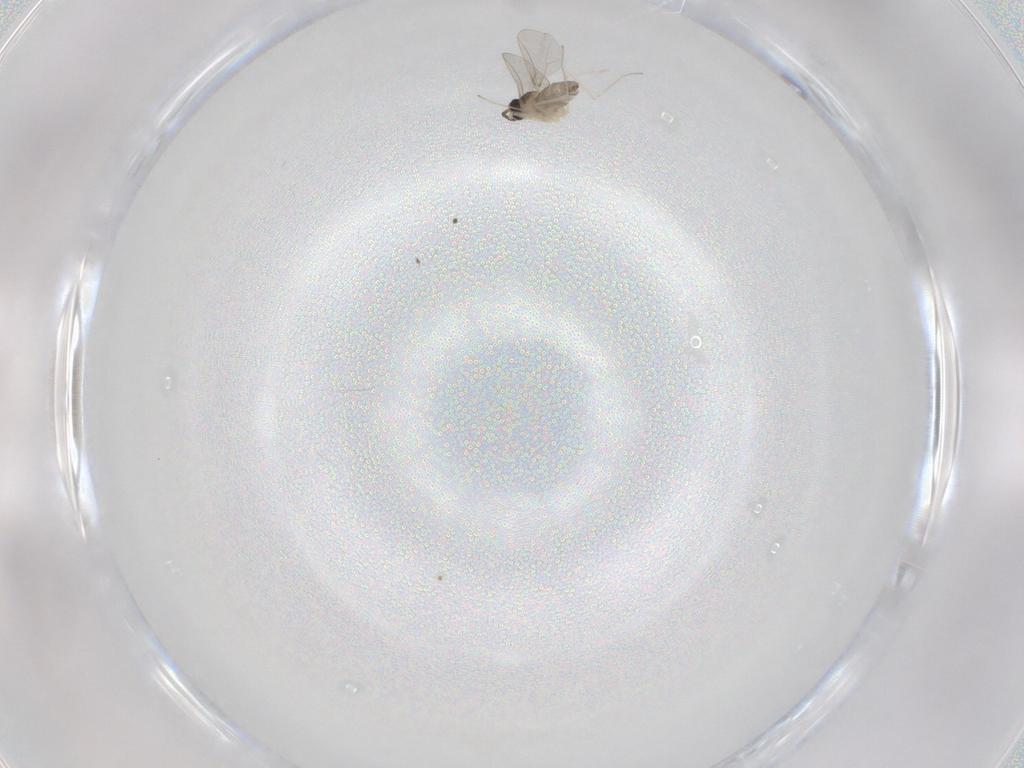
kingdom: Animalia
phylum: Arthropoda
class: Insecta
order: Diptera
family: Cecidomyiidae
